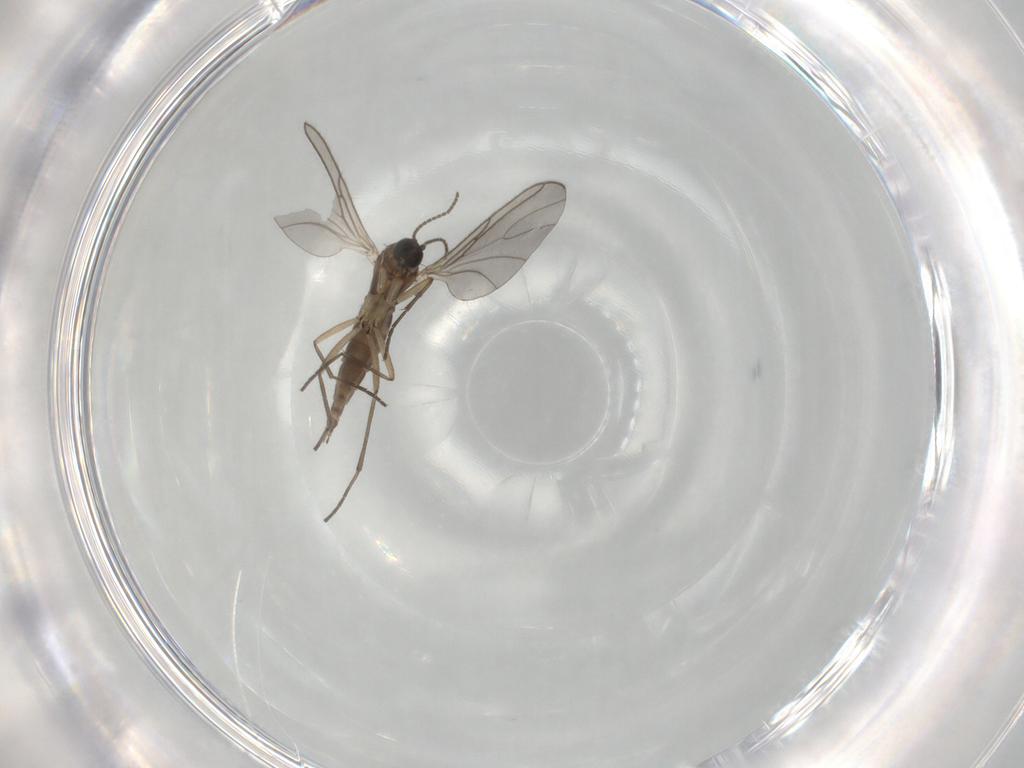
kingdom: Animalia
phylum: Arthropoda
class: Insecta
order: Diptera
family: Sciaridae
